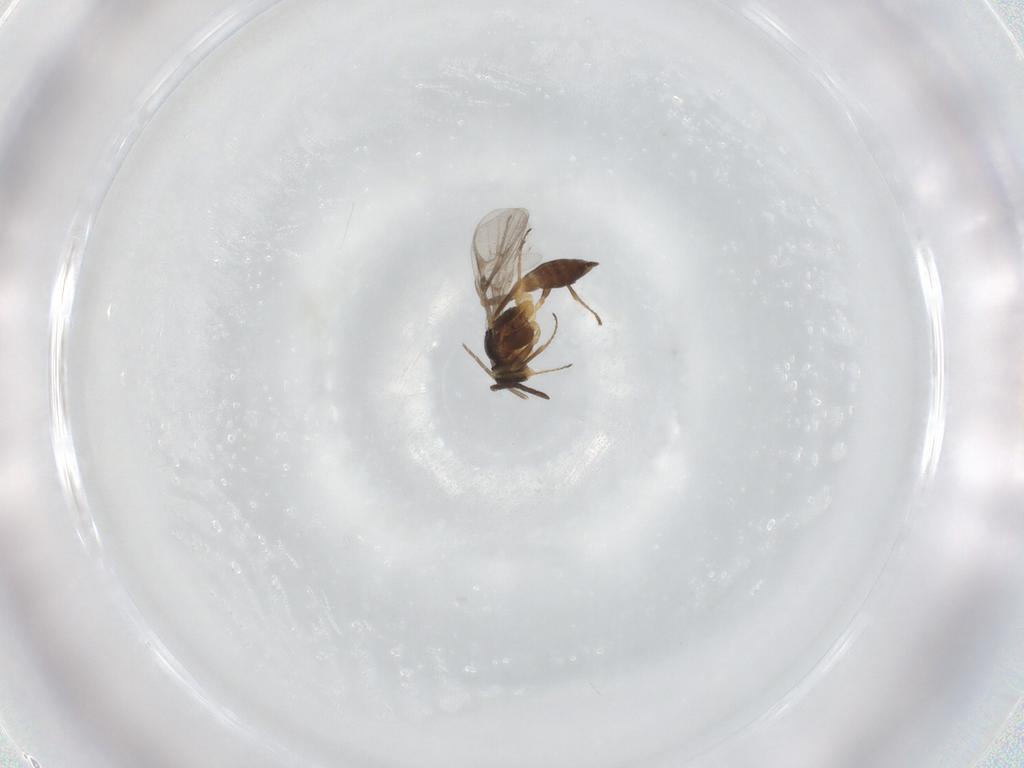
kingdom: Animalia
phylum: Arthropoda
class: Insecta
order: Hymenoptera
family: Braconidae
